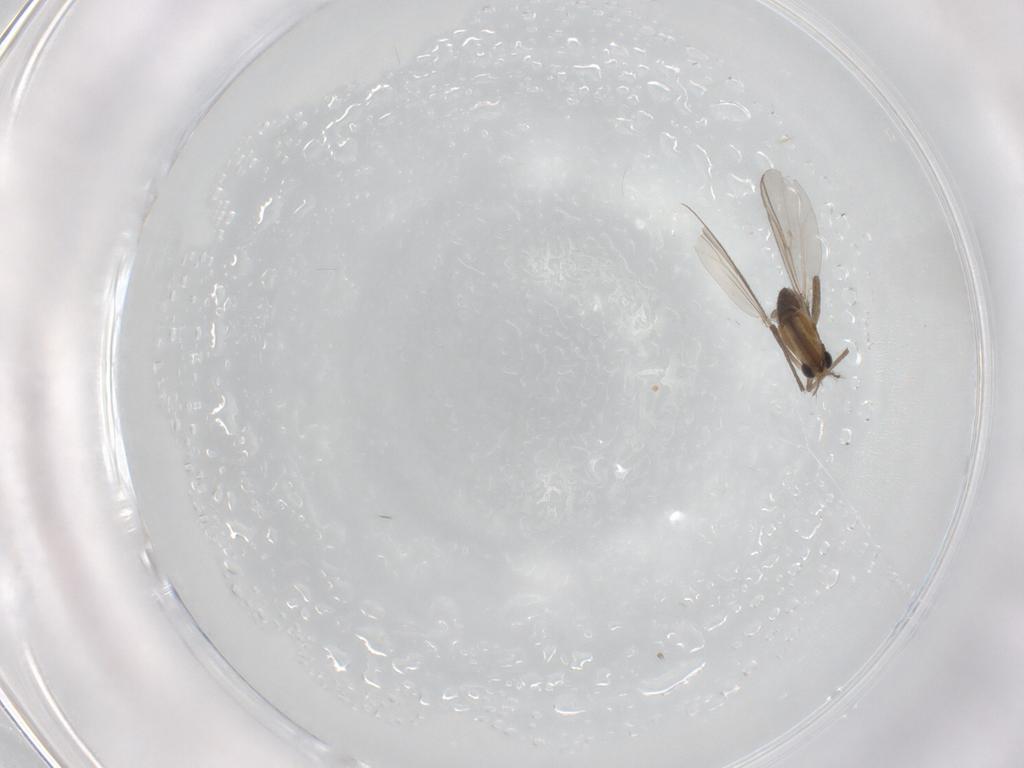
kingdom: Animalia
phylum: Arthropoda
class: Insecta
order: Diptera
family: Chironomidae
